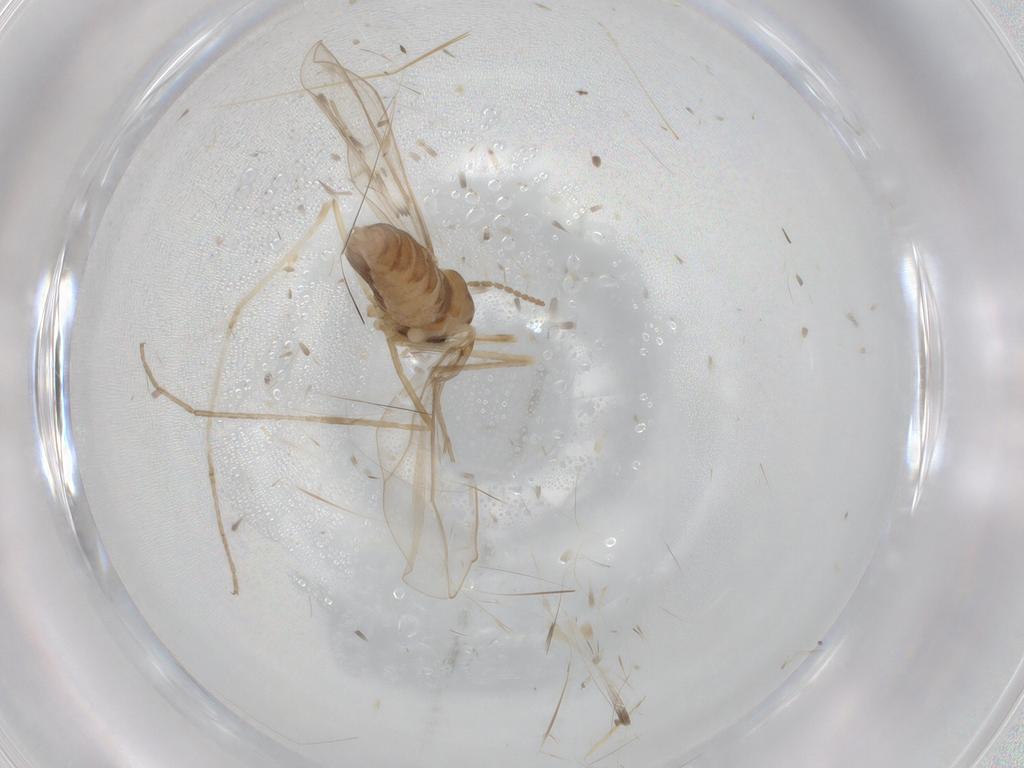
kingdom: Animalia
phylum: Arthropoda
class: Insecta
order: Diptera
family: Cecidomyiidae
